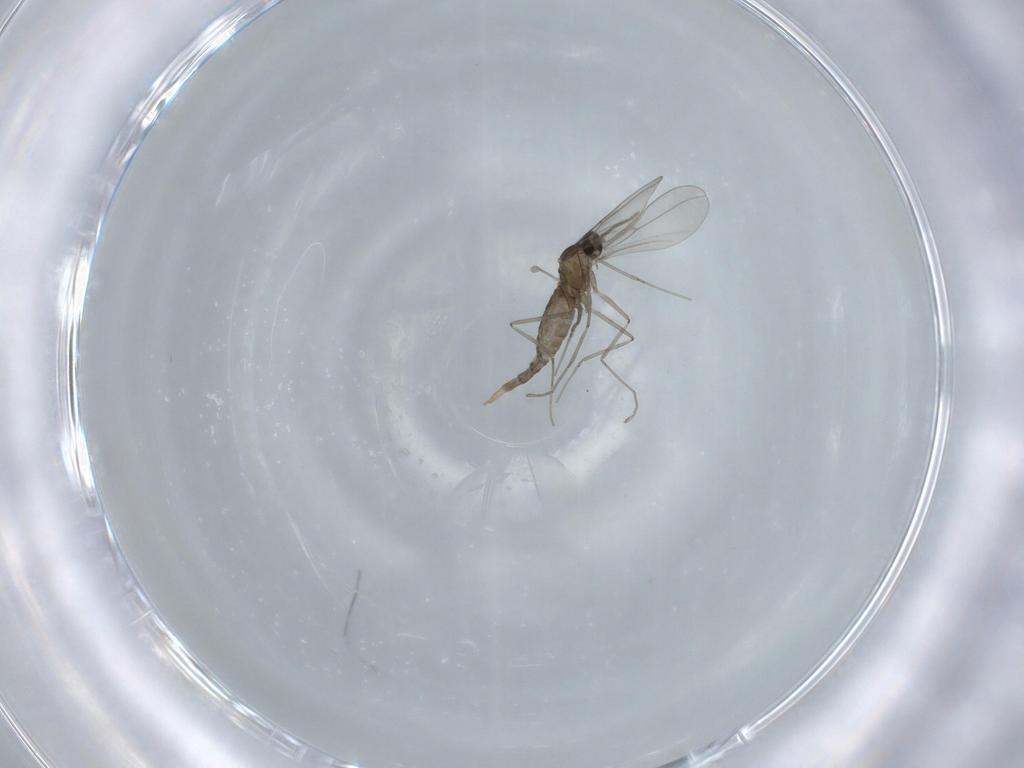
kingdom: Animalia
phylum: Arthropoda
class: Insecta
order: Diptera
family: Cecidomyiidae
